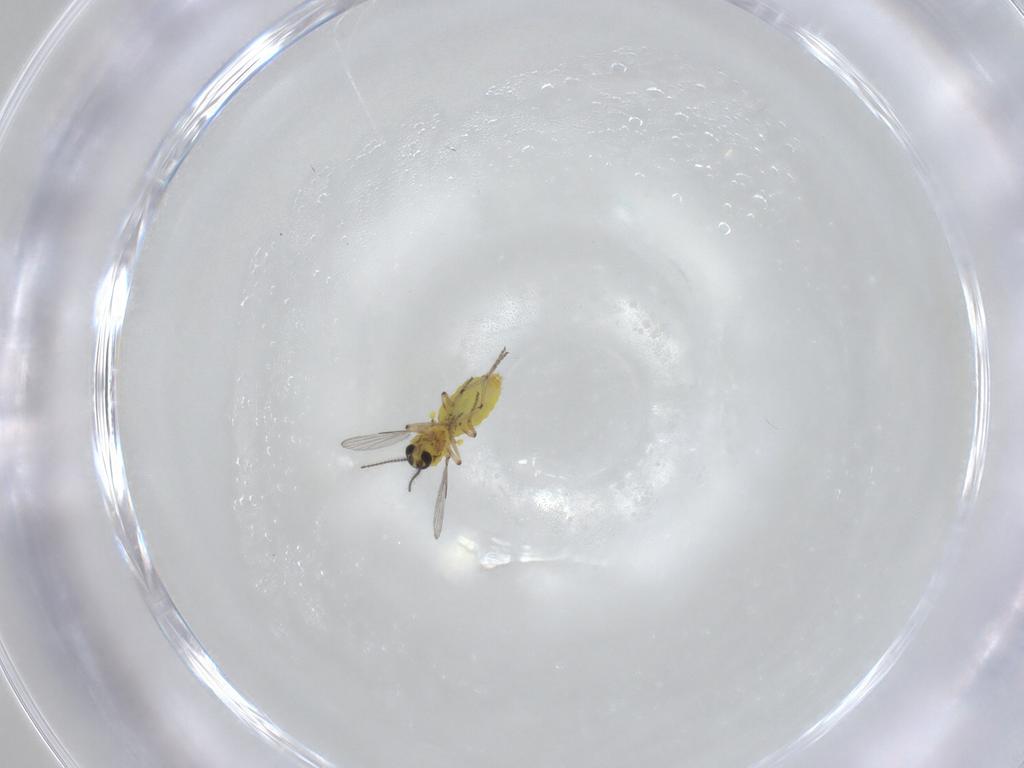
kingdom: Animalia
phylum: Arthropoda
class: Insecta
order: Diptera
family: Ceratopogonidae
